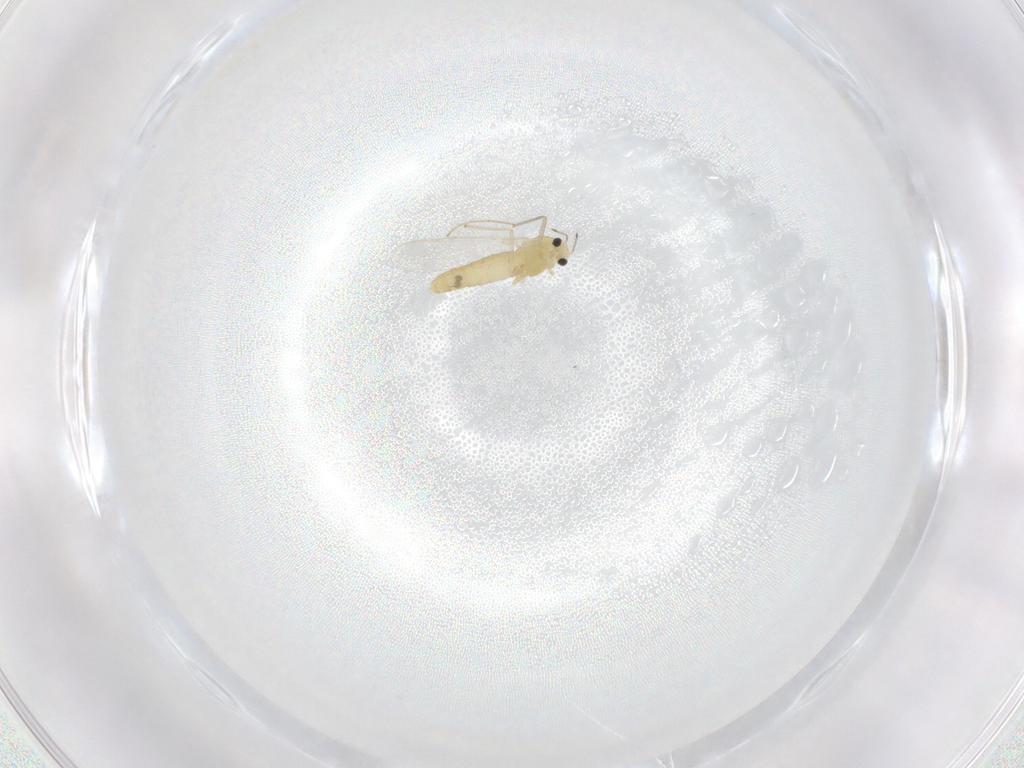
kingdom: Animalia
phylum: Arthropoda
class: Insecta
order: Diptera
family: Chironomidae
